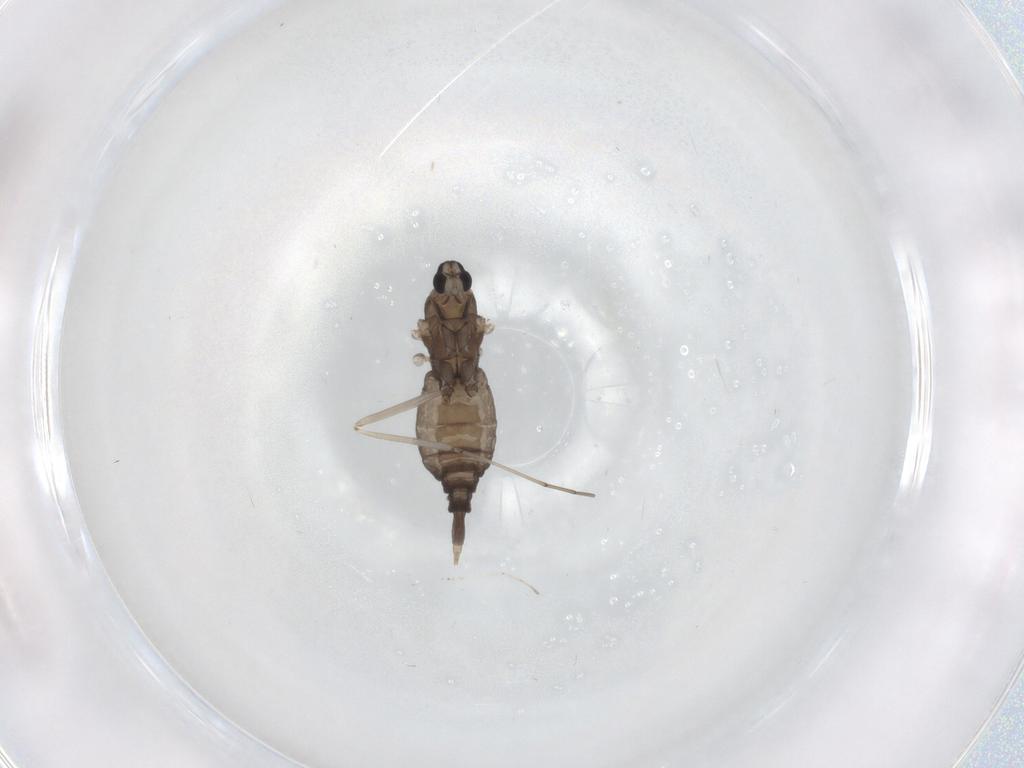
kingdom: Animalia
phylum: Arthropoda
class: Insecta
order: Diptera
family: Cecidomyiidae
